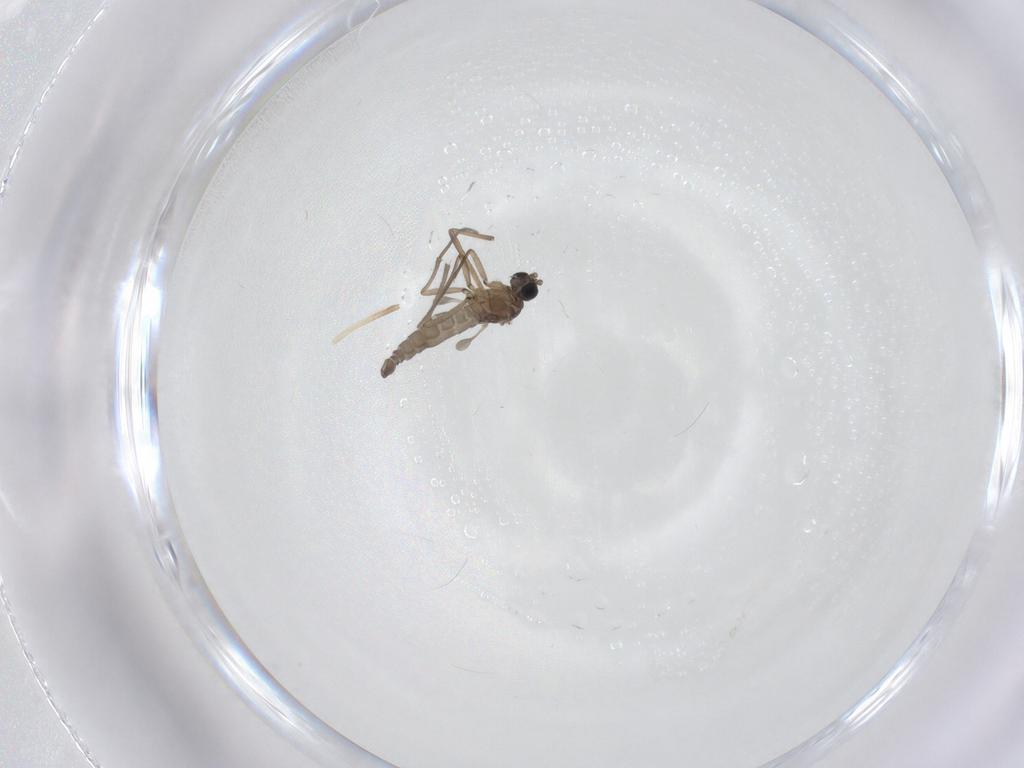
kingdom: Animalia
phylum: Arthropoda
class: Insecta
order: Diptera
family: Sciaridae
